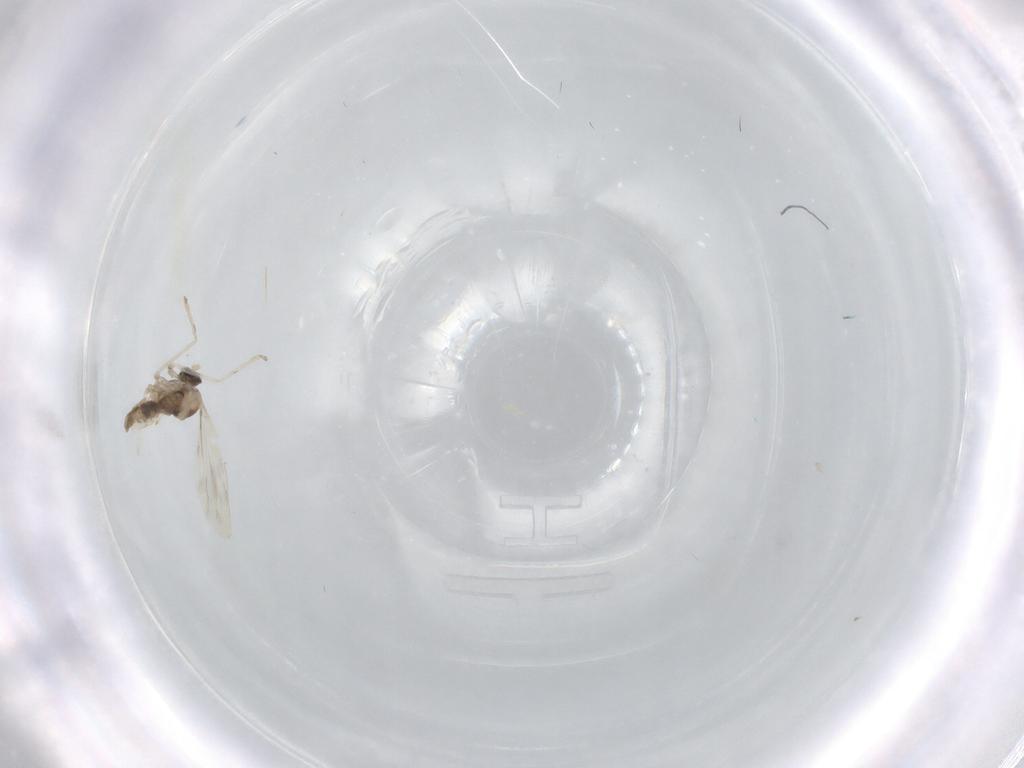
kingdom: Animalia
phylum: Arthropoda
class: Insecta
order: Diptera
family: Cecidomyiidae
